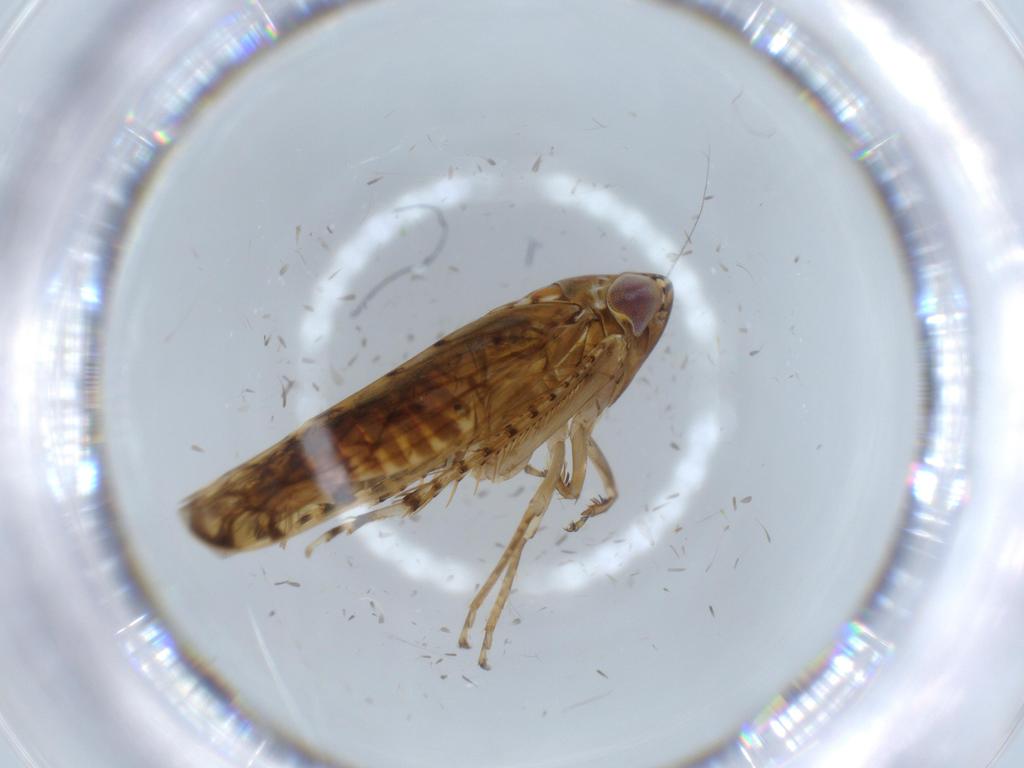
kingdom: Animalia
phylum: Arthropoda
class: Insecta
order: Hemiptera
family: Cicadellidae
